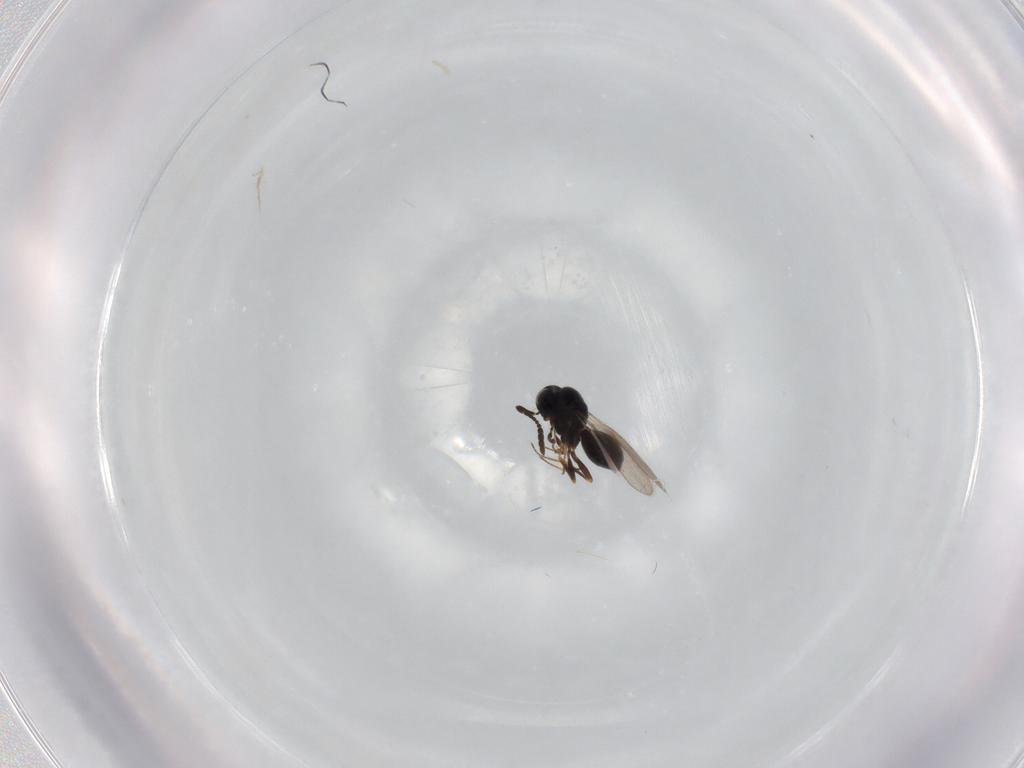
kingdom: Animalia
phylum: Arthropoda
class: Insecta
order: Hymenoptera
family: Scelionidae
